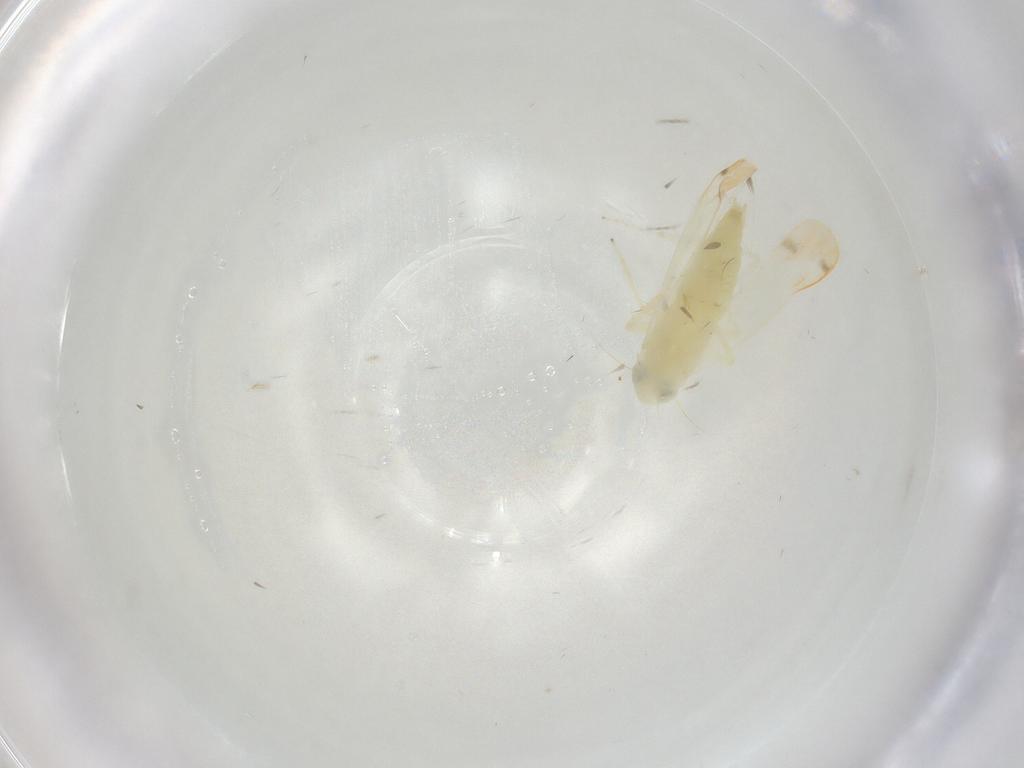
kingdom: Animalia
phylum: Arthropoda
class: Insecta
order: Hemiptera
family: Cicadellidae
